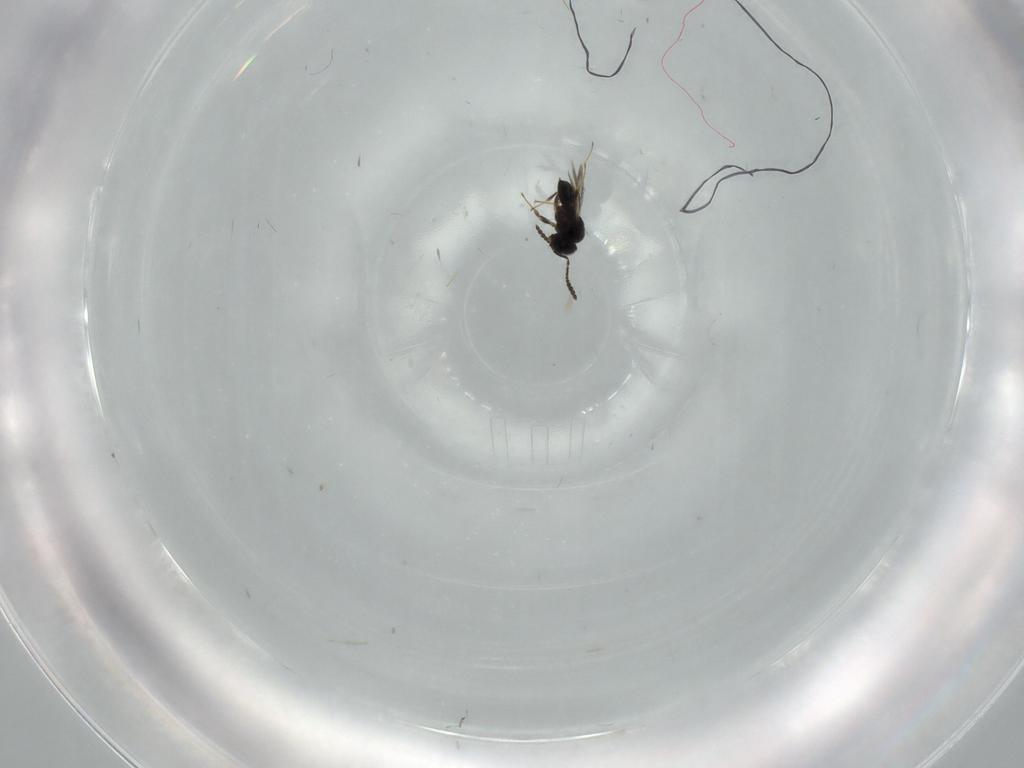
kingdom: Animalia
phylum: Arthropoda
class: Insecta
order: Hymenoptera
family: Scelionidae
